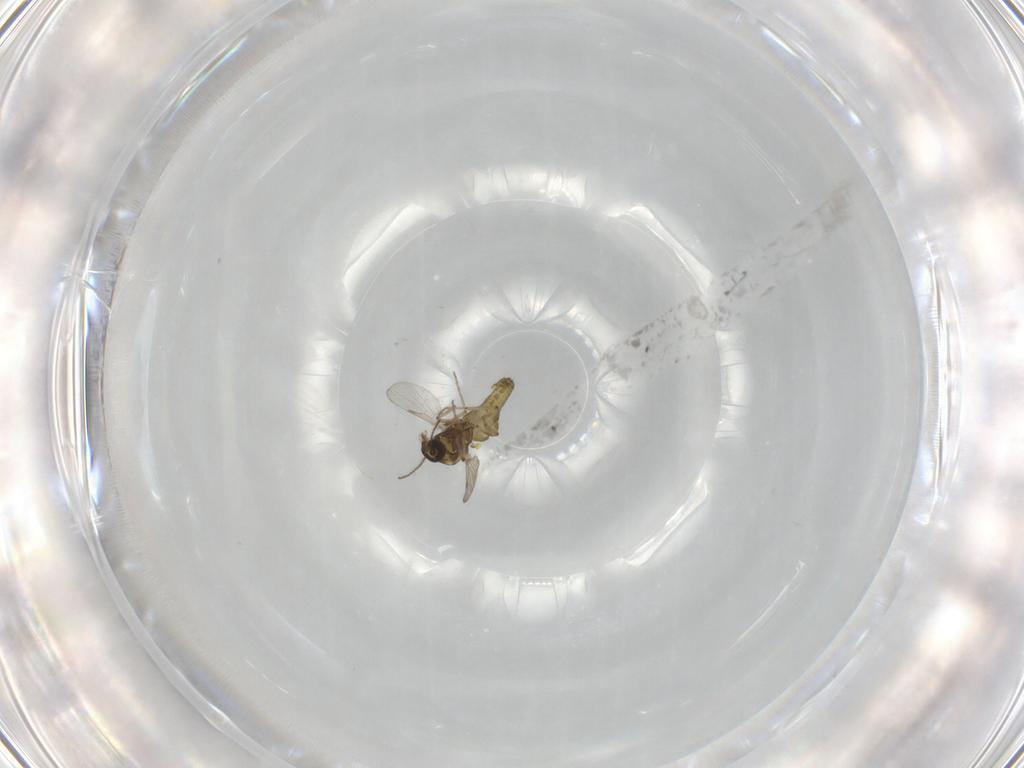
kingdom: Animalia
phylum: Arthropoda
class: Insecta
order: Diptera
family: Ceratopogonidae
